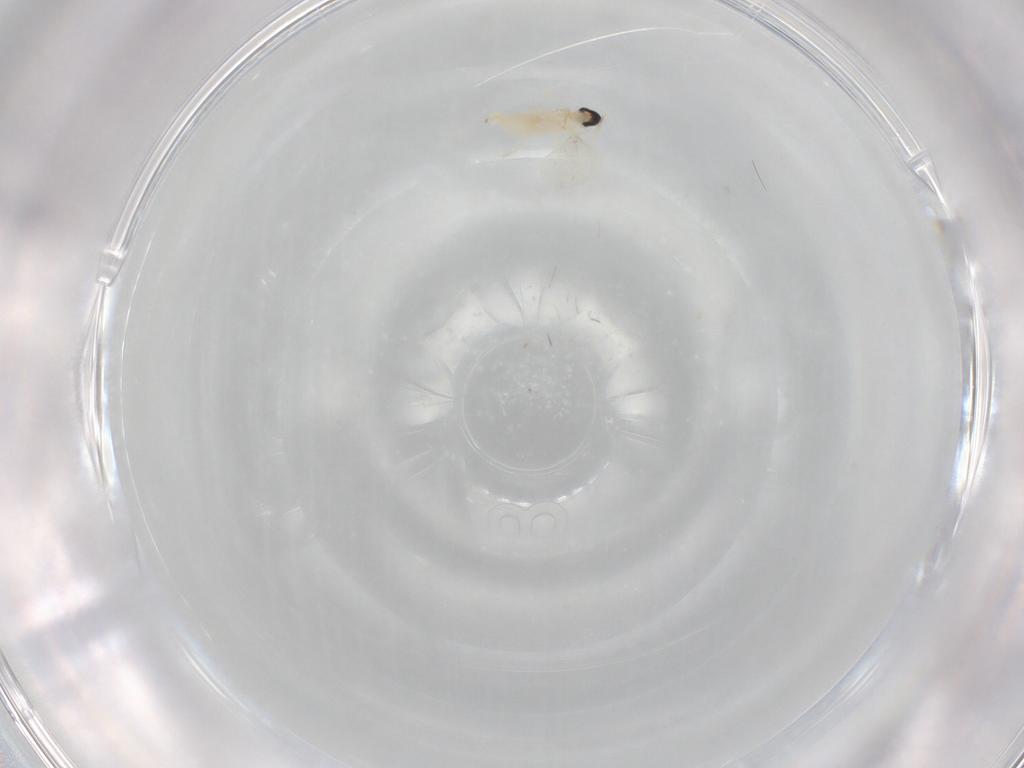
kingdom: Animalia
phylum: Arthropoda
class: Insecta
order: Diptera
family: Cecidomyiidae
